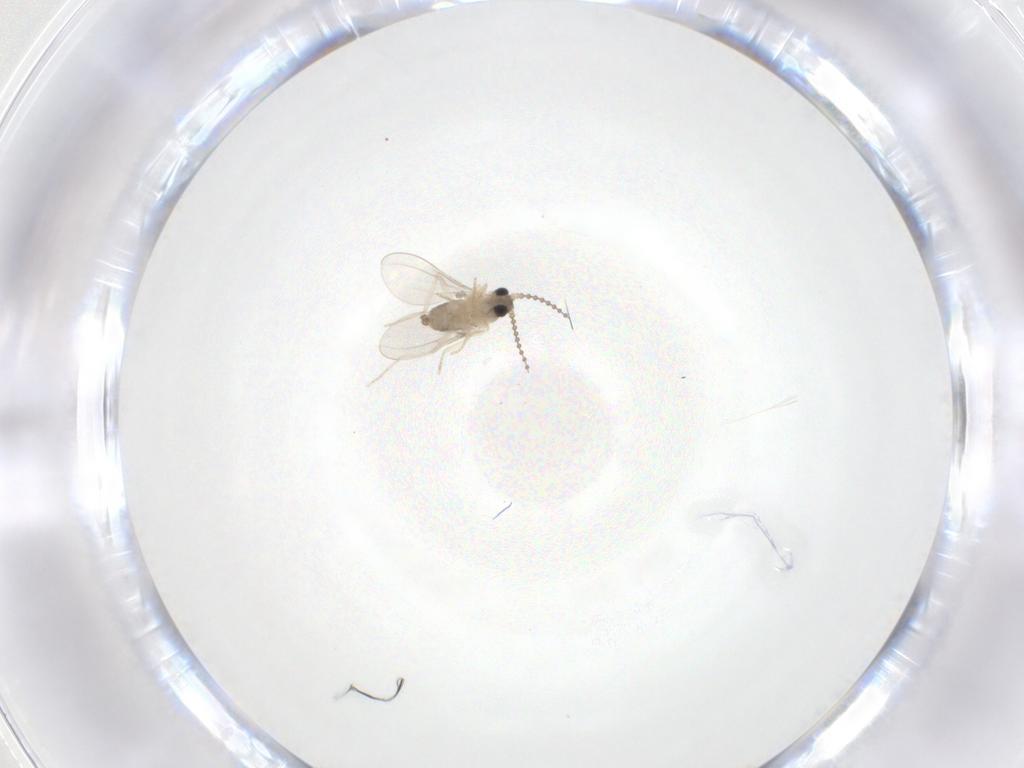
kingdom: Animalia
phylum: Arthropoda
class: Insecta
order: Diptera
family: Cecidomyiidae
